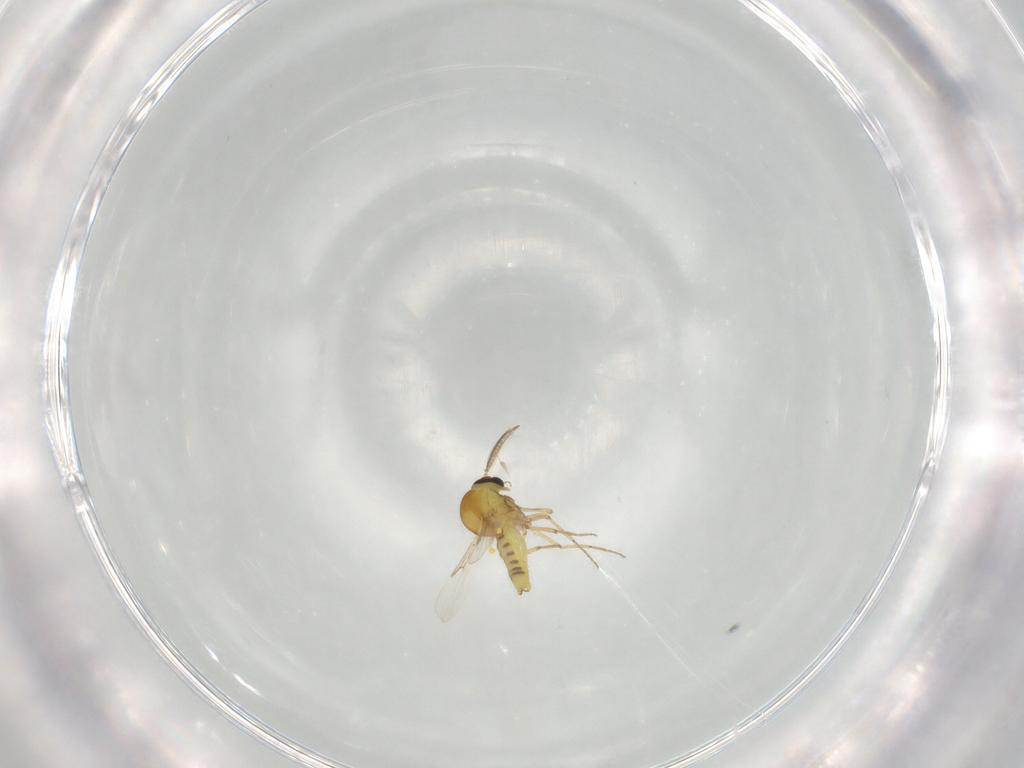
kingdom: Animalia
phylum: Arthropoda
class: Insecta
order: Diptera
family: Ceratopogonidae
